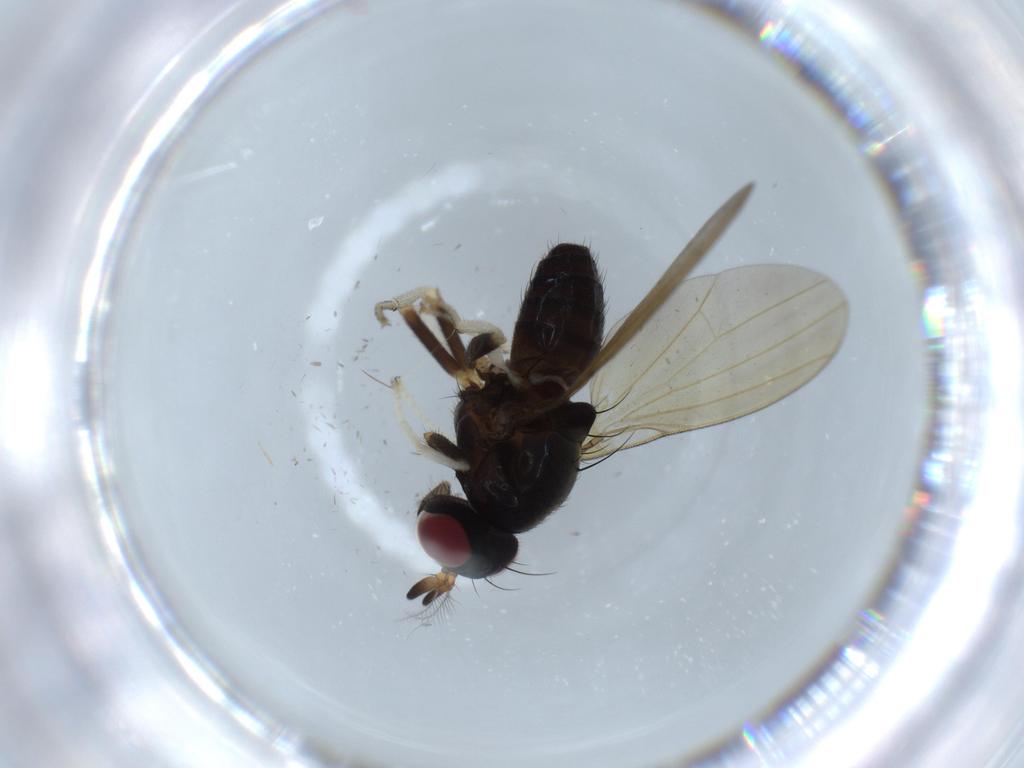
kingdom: Animalia
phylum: Arthropoda
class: Insecta
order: Diptera
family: Lauxaniidae
